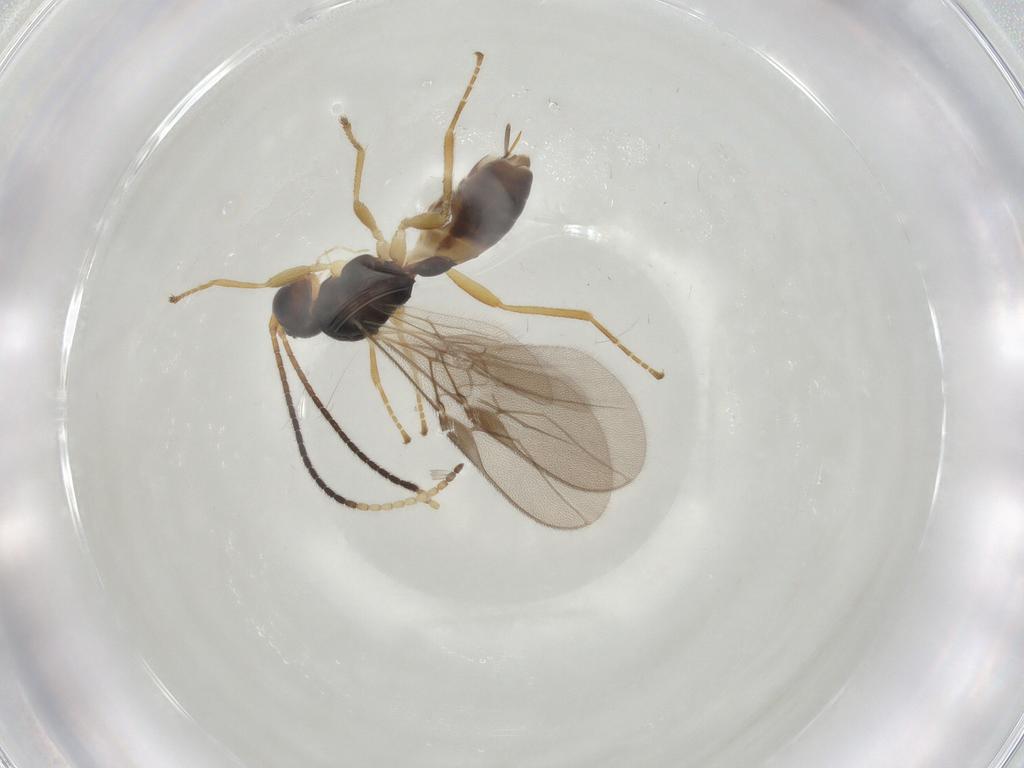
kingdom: Animalia
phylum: Arthropoda
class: Insecta
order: Hymenoptera
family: Braconidae
